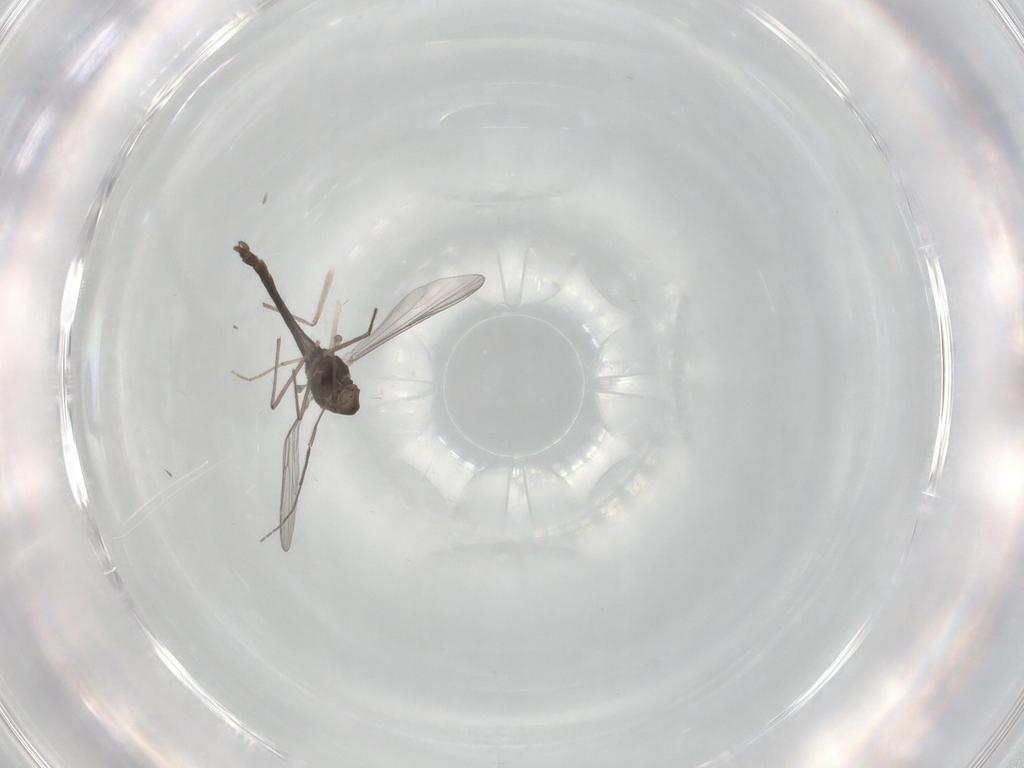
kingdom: Animalia
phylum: Arthropoda
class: Insecta
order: Diptera
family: Chironomidae
